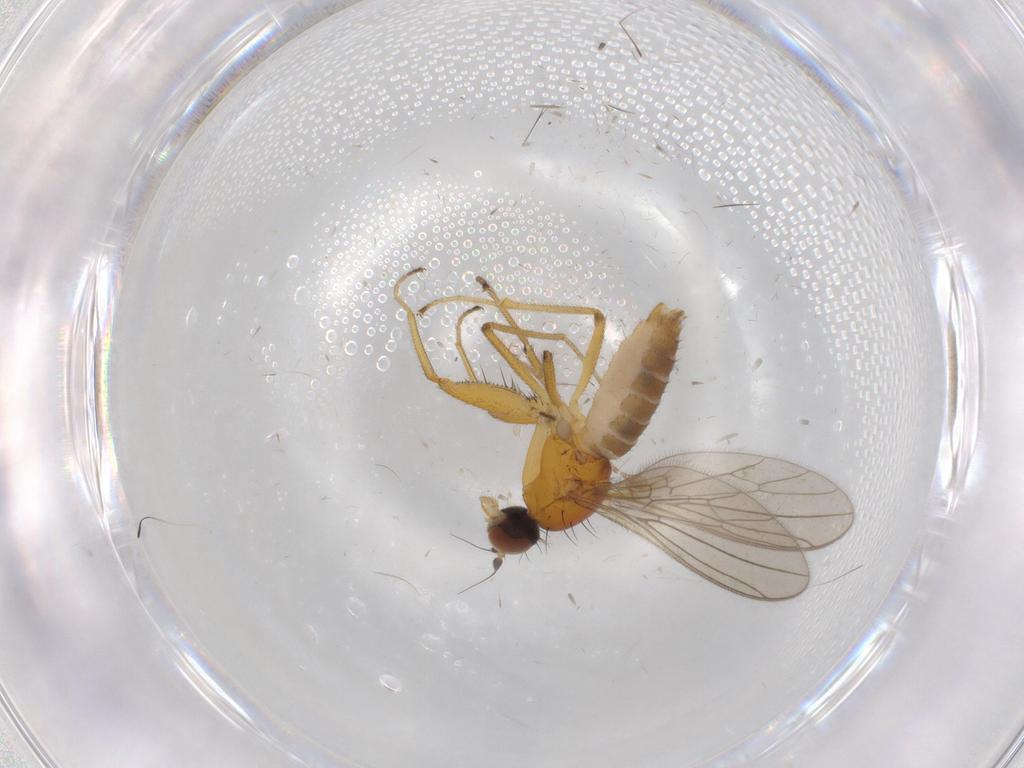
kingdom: Animalia
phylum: Arthropoda
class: Insecta
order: Diptera
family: Empididae
